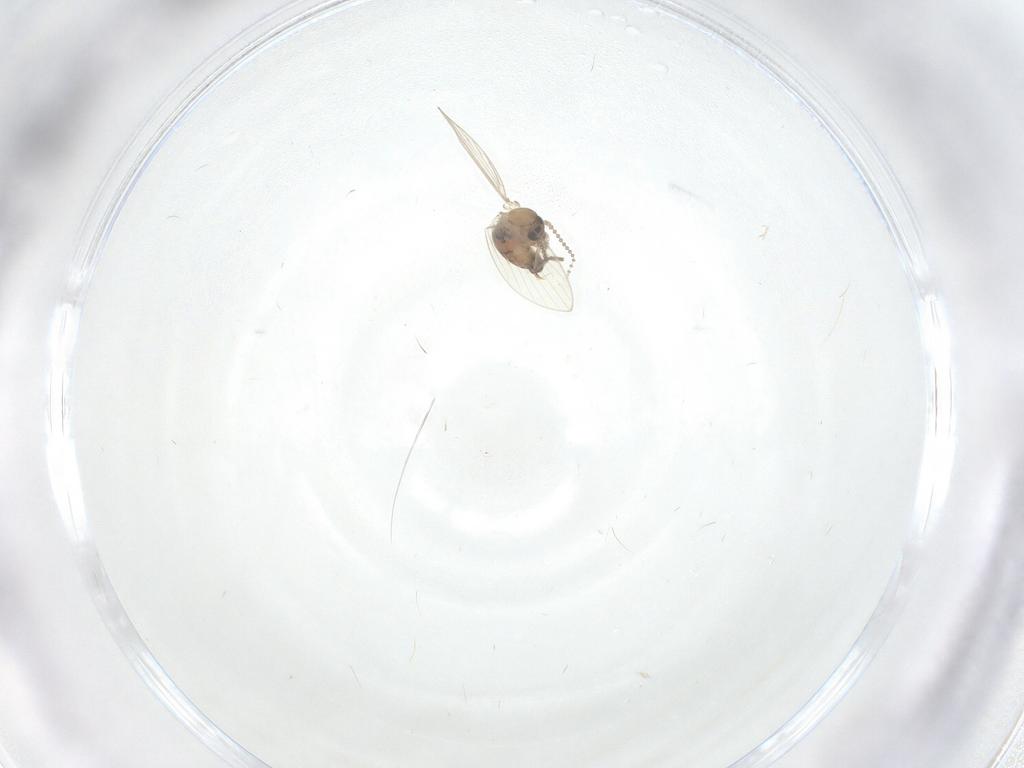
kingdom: Animalia
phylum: Arthropoda
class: Insecta
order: Diptera
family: Psychodidae
